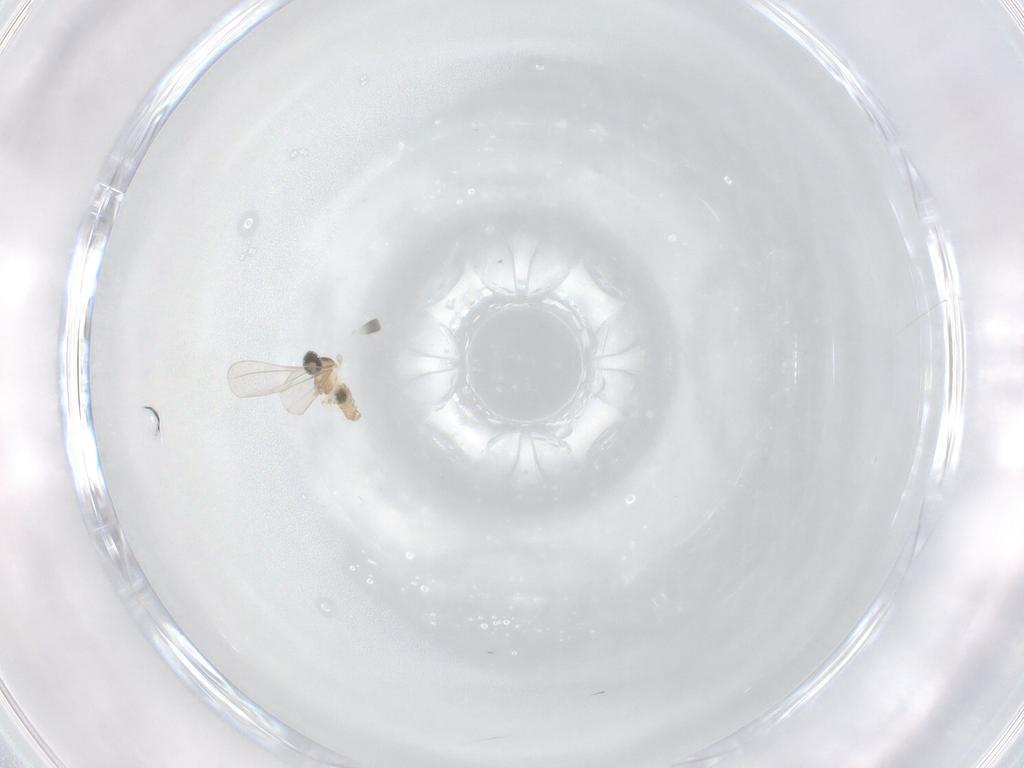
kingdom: Animalia
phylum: Arthropoda
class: Insecta
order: Diptera
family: Cecidomyiidae
